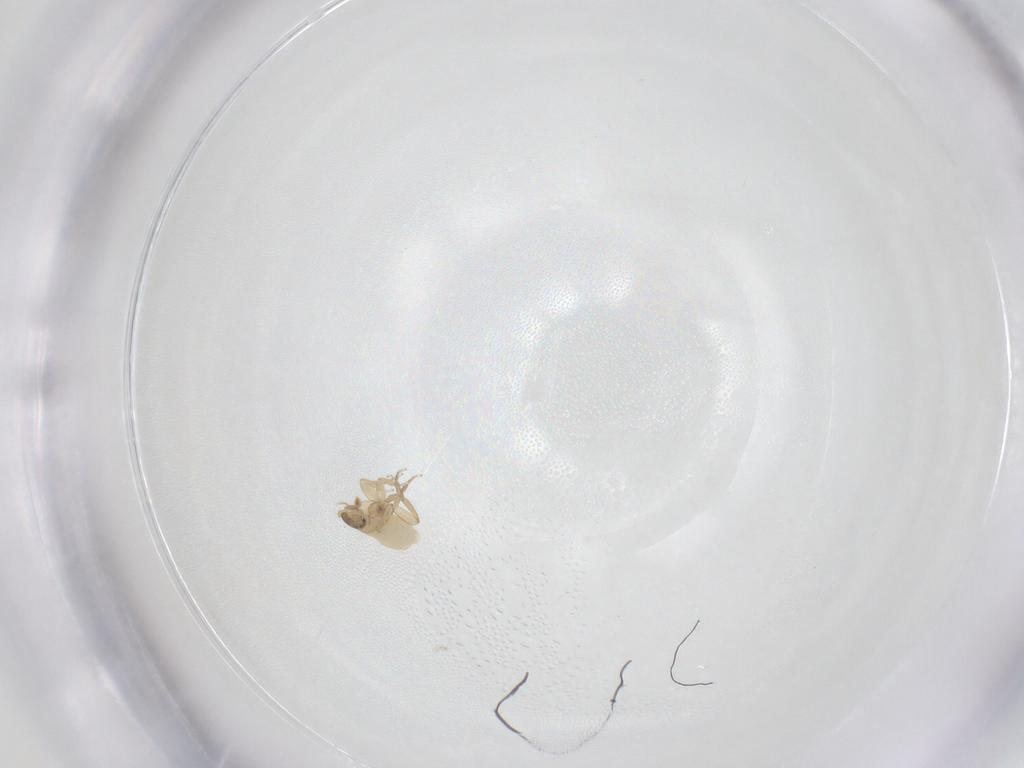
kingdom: Animalia
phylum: Arthropoda
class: Insecta
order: Diptera
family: Phoridae
